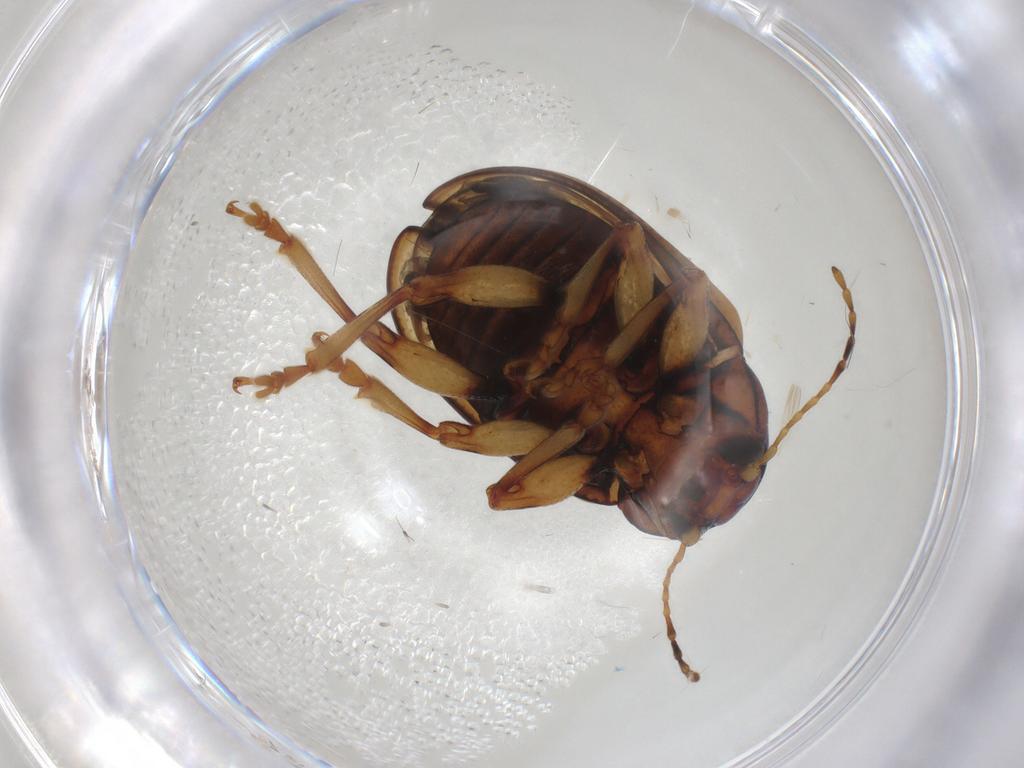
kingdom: Animalia
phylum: Arthropoda
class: Insecta
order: Coleoptera
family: Chrysomelidae
